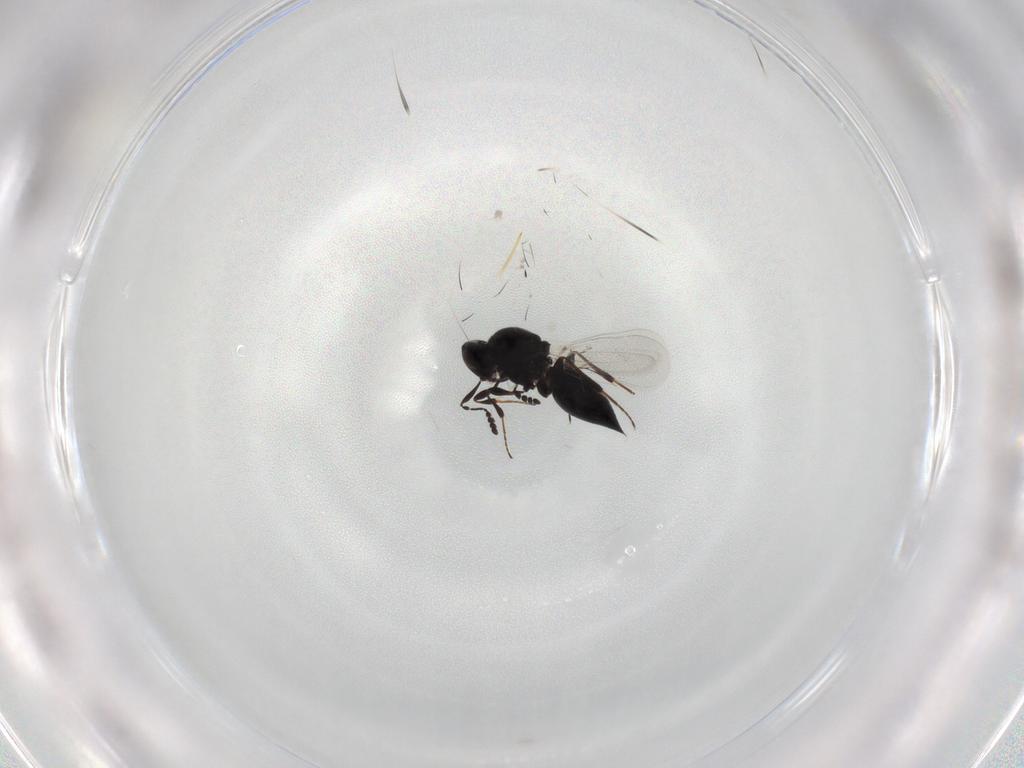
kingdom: Animalia
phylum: Arthropoda
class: Insecta
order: Hymenoptera
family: Platygastridae
